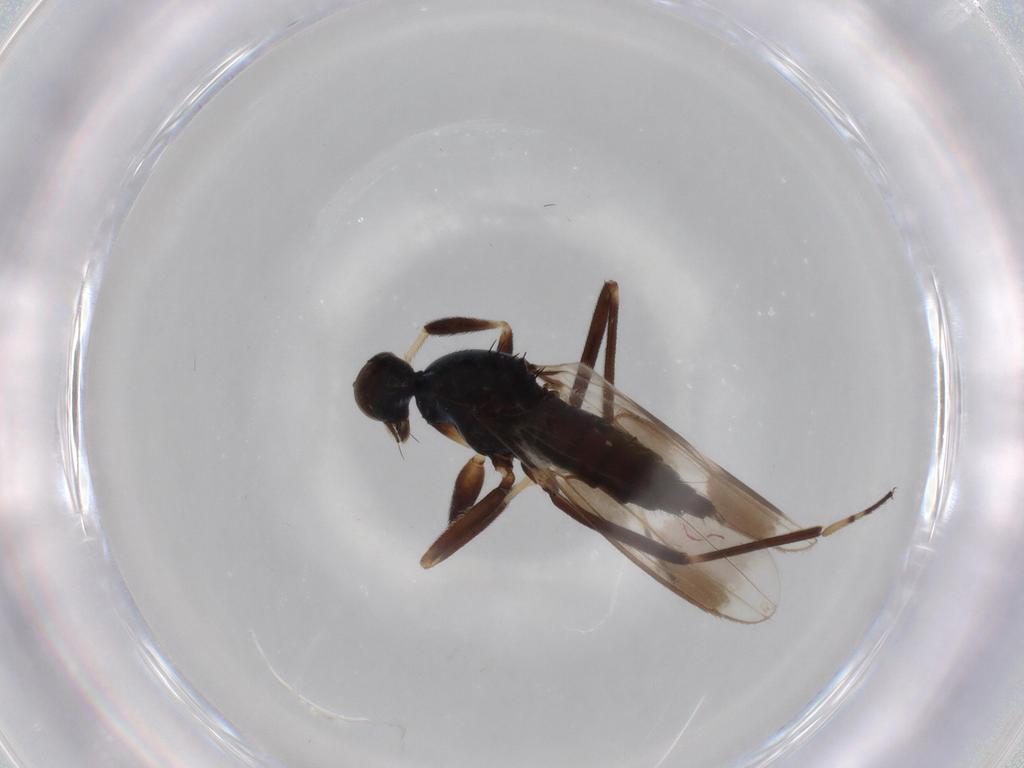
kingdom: Animalia
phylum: Arthropoda
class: Insecta
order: Diptera
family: Hybotidae
